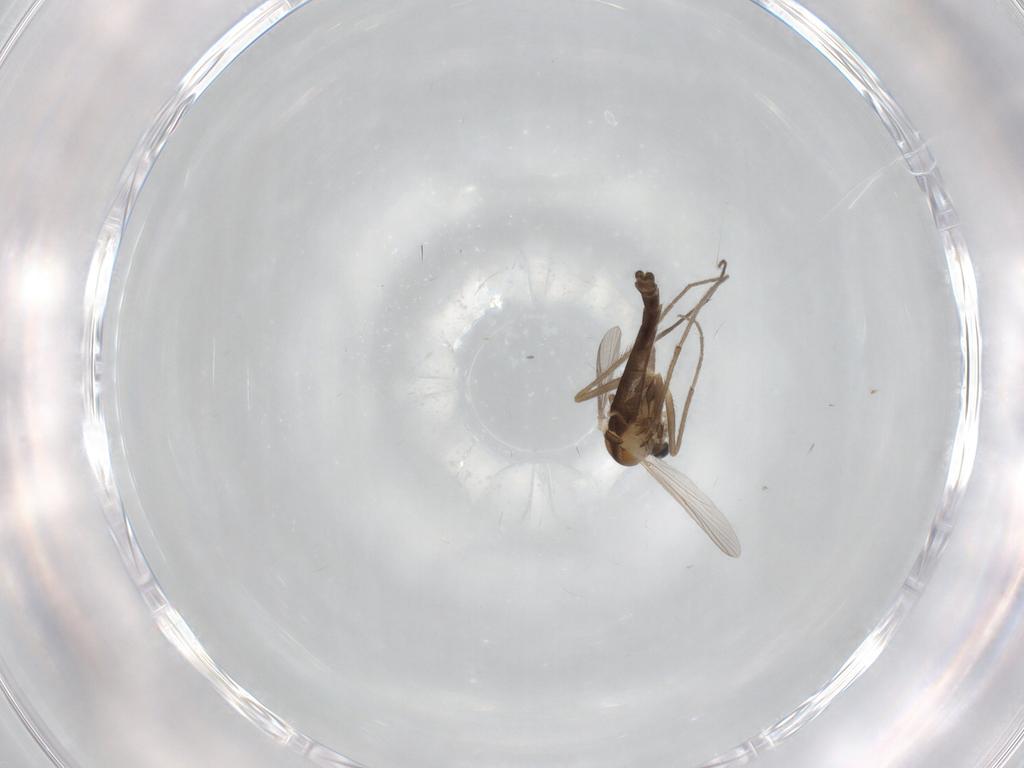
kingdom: Animalia
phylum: Arthropoda
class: Insecta
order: Diptera
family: Chironomidae
